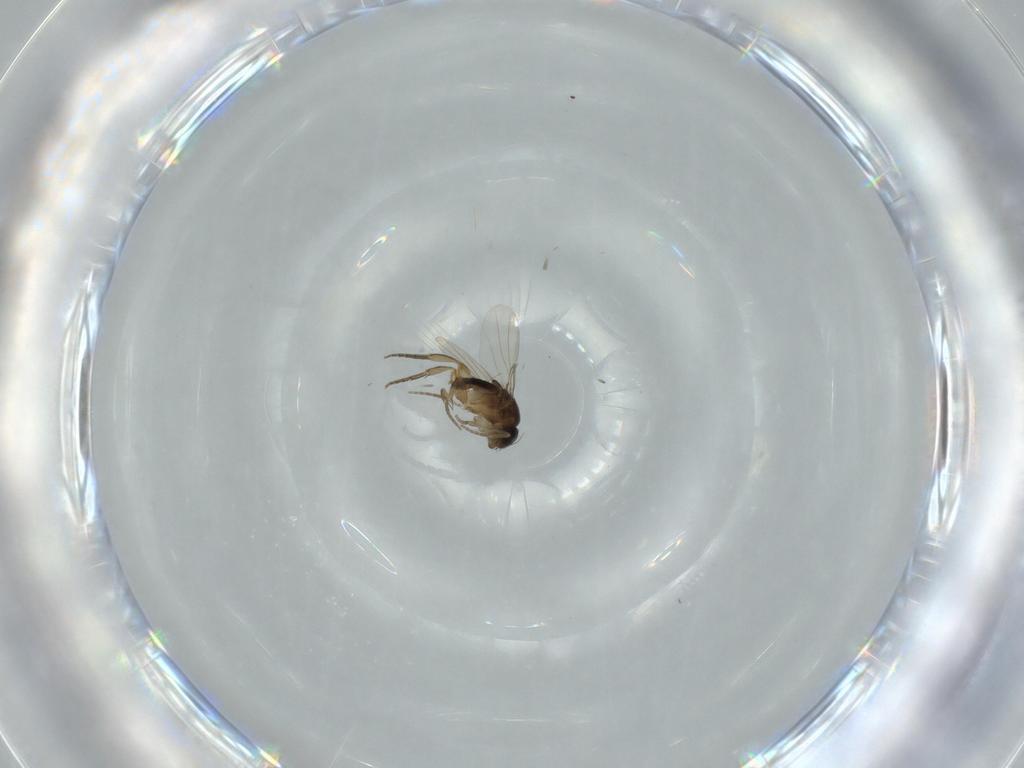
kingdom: Animalia
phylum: Arthropoda
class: Insecta
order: Diptera
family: Phoridae
